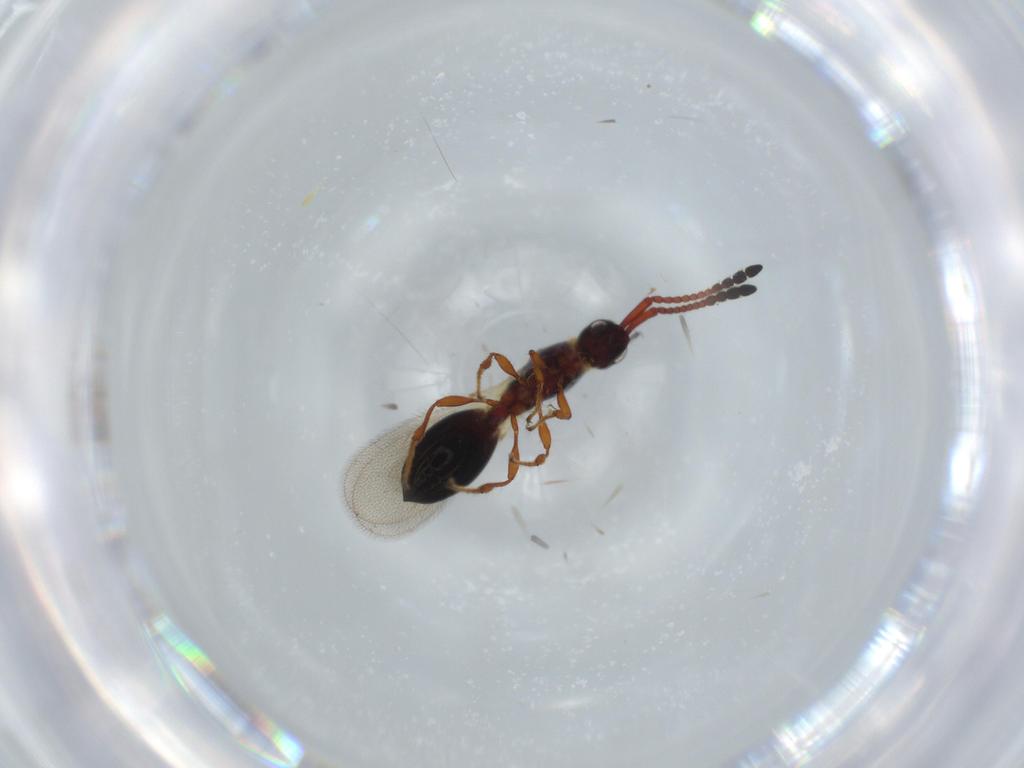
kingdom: Animalia
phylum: Arthropoda
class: Insecta
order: Hymenoptera
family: Diapriidae
